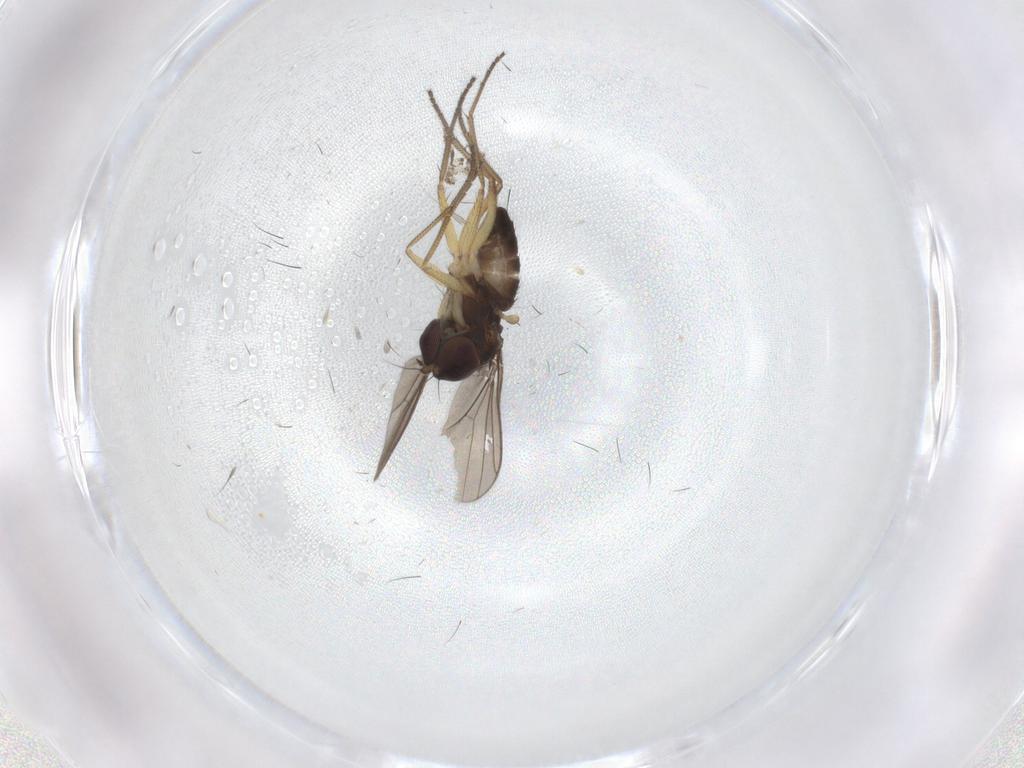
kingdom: Animalia
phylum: Arthropoda
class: Insecta
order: Diptera
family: Dolichopodidae
